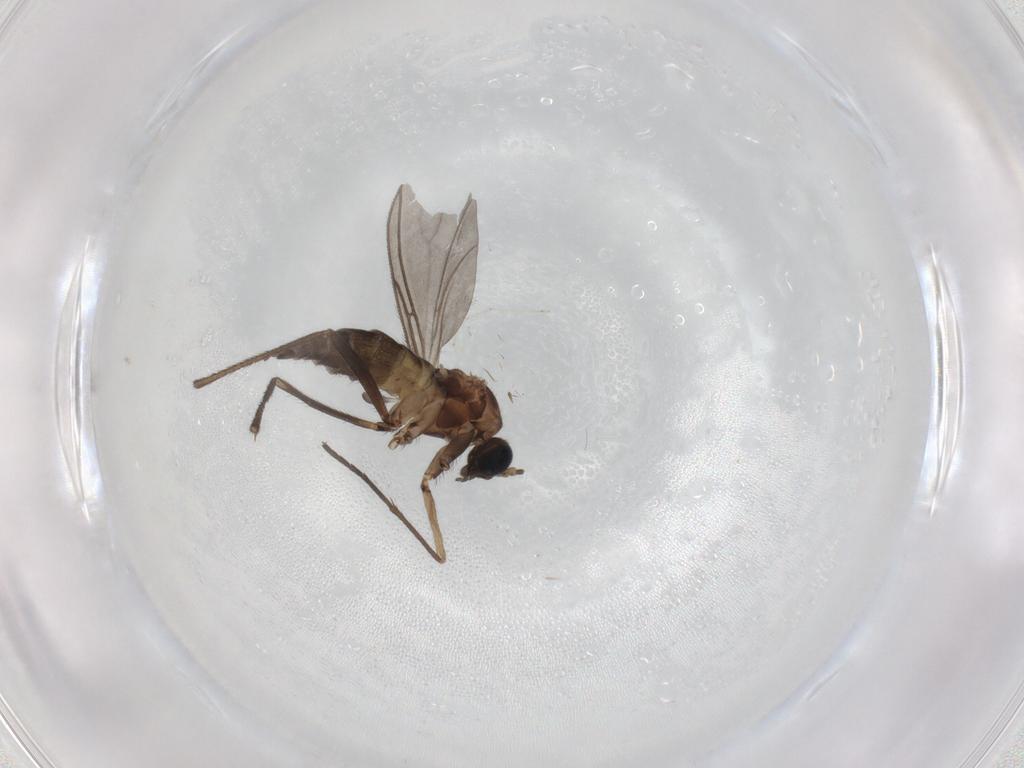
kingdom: Animalia
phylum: Arthropoda
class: Insecta
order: Diptera
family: Sciaridae
